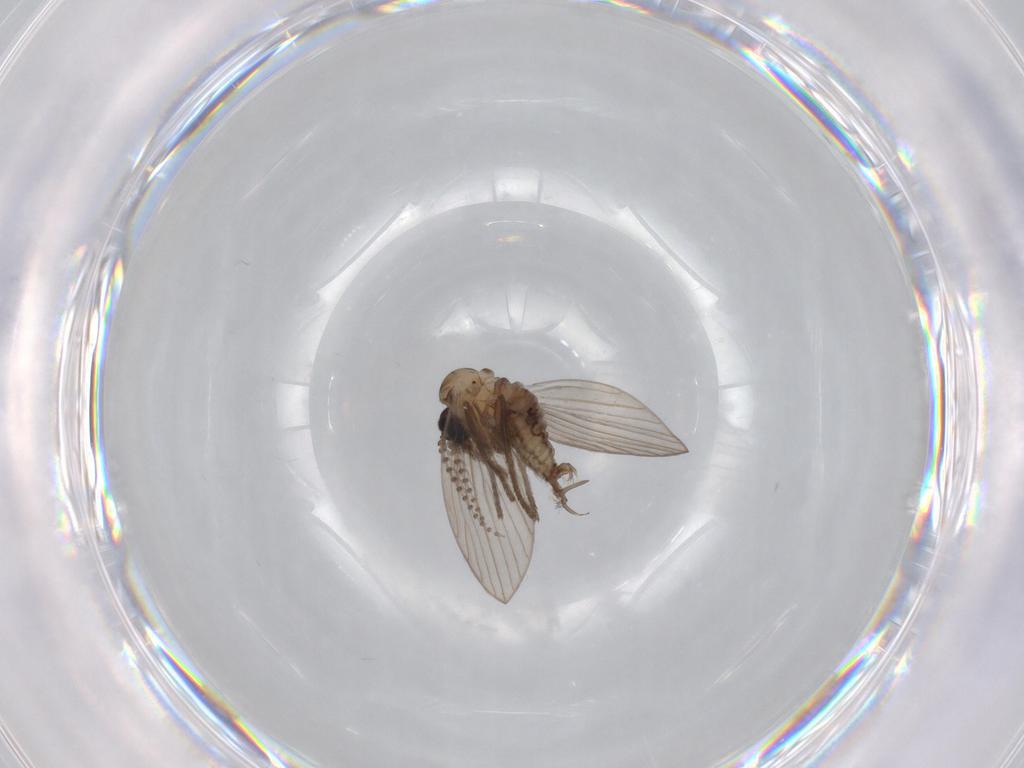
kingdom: Animalia
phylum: Arthropoda
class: Insecta
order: Diptera
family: Psychodidae
